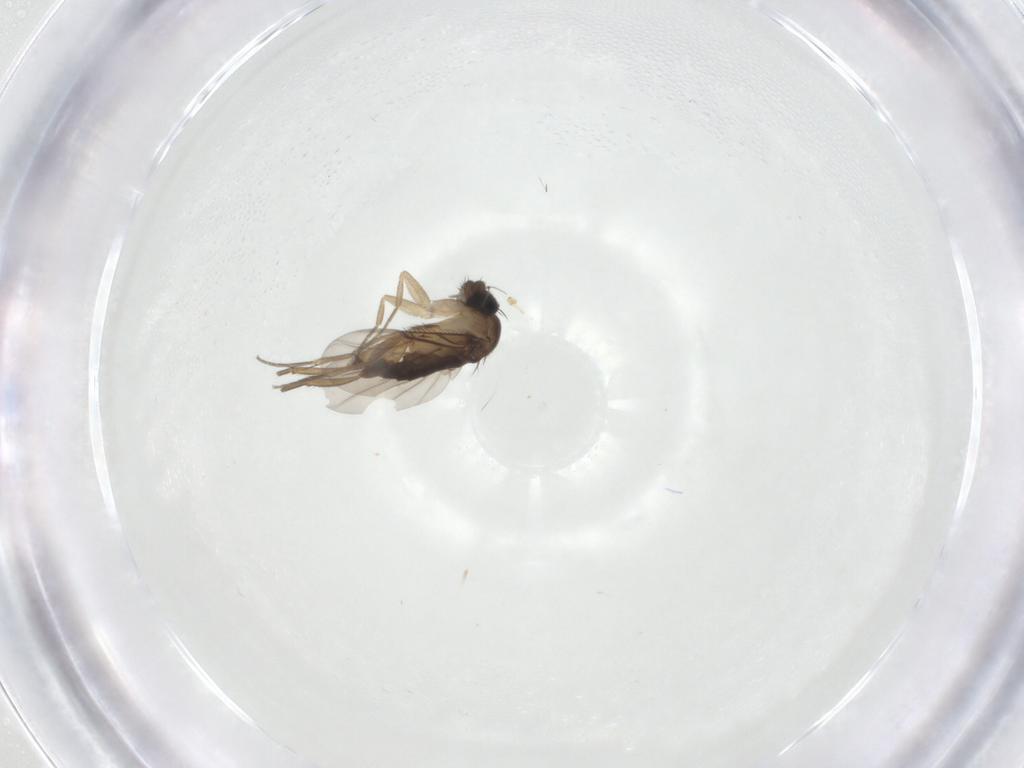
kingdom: Animalia
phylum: Arthropoda
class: Insecta
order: Diptera
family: Phoridae
